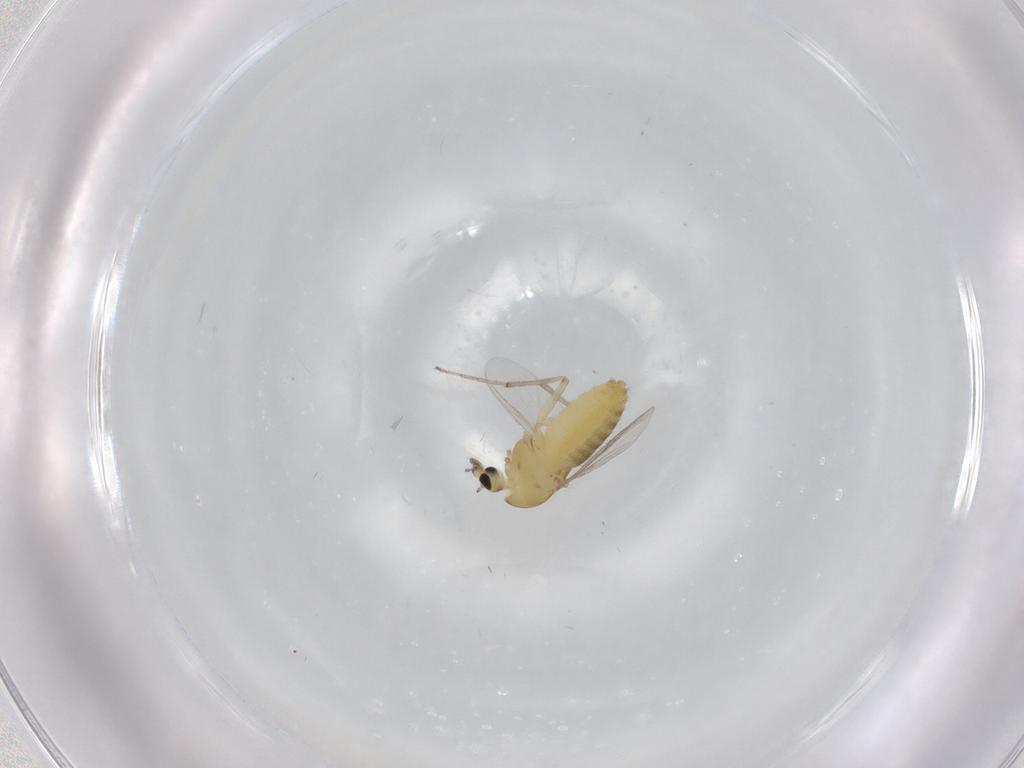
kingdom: Animalia
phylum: Arthropoda
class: Insecta
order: Diptera
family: Chironomidae
